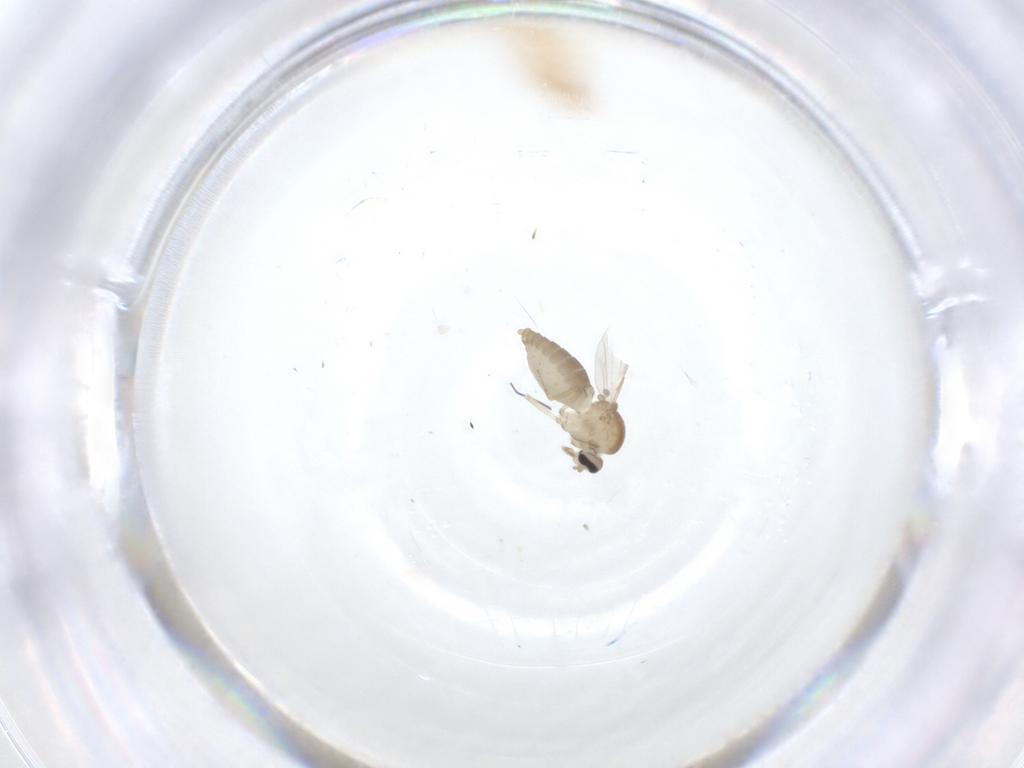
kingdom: Animalia
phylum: Arthropoda
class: Insecta
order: Diptera
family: Ceratopogonidae
